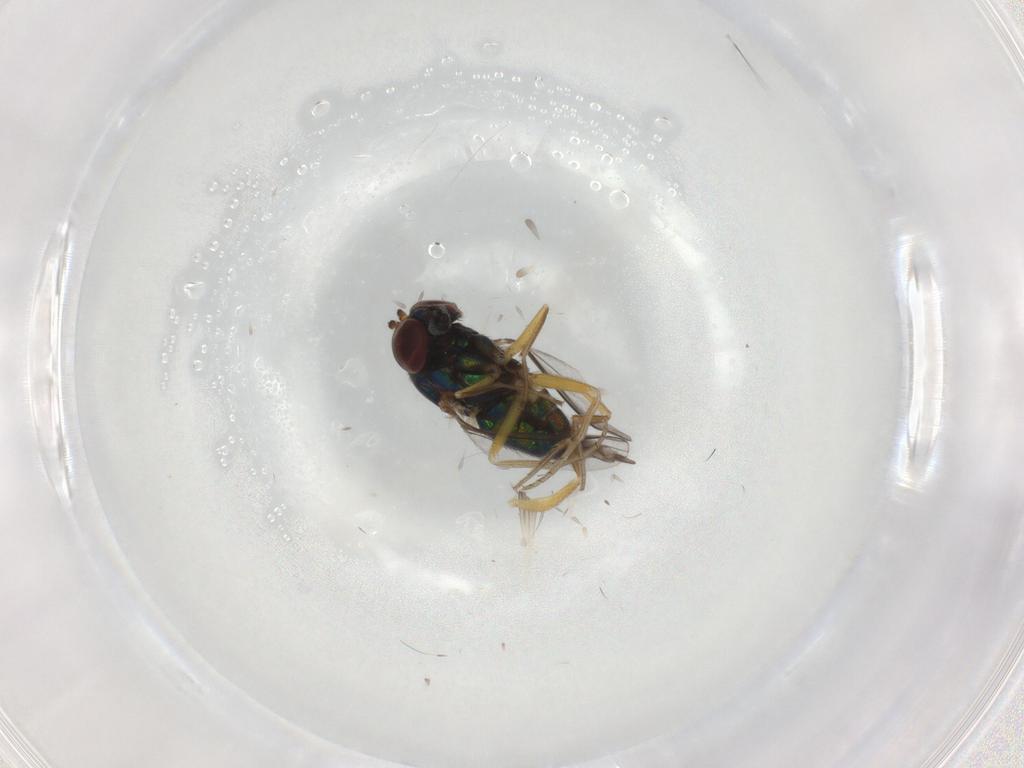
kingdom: Animalia
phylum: Arthropoda
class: Insecta
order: Diptera
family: Dolichopodidae
